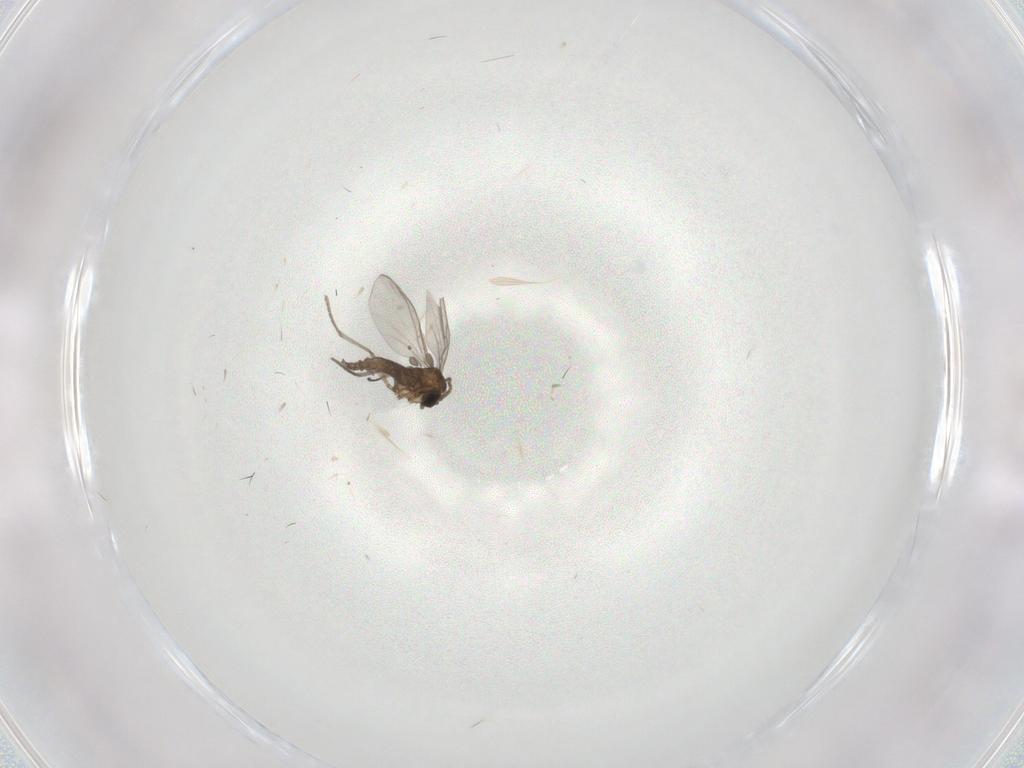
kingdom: Animalia
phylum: Arthropoda
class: Insecta
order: Diptera
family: Sciaridae
